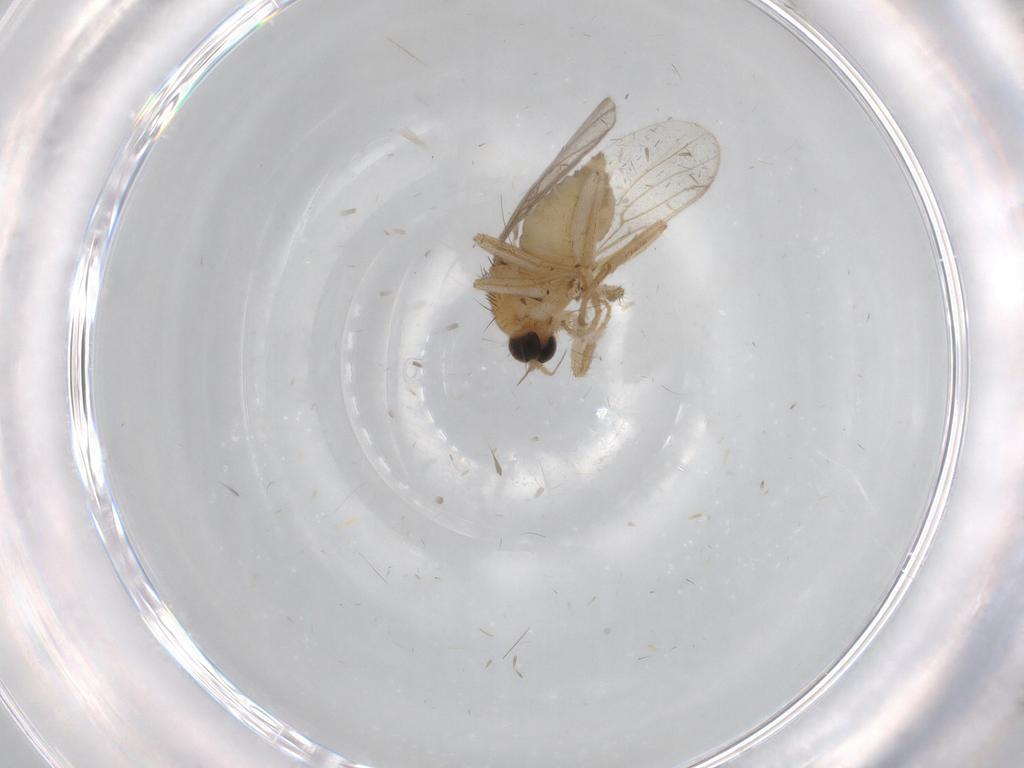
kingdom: Animalia
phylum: Arthropoda
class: Insecta
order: Diptera
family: Hybotidae
